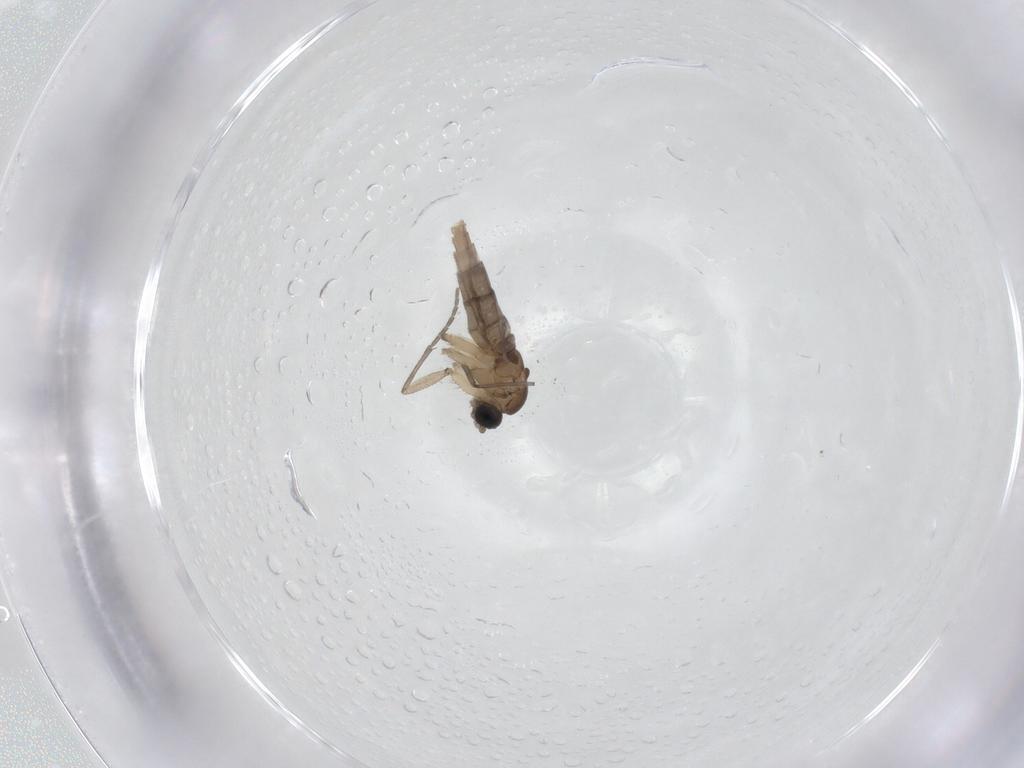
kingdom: Animalia
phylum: Arthropoda
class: Insecta
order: Diptera
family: Sciaridae
